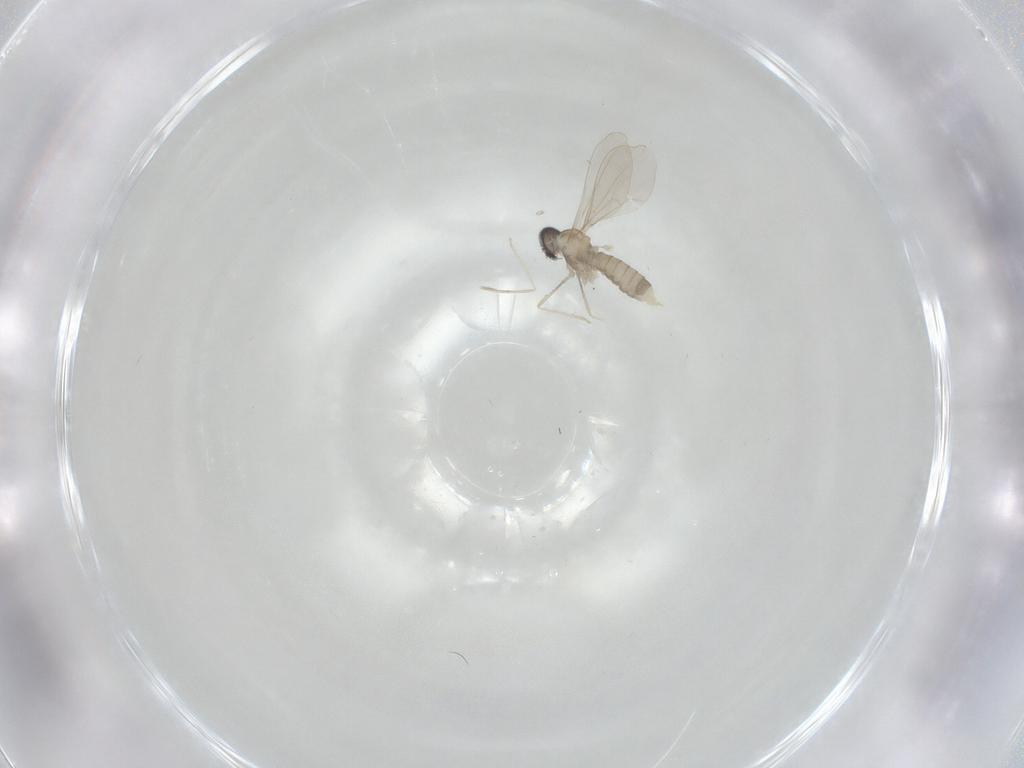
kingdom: Animalia
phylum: Arthropoda
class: Insecta
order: Diptera
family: Cecidomyiidae
